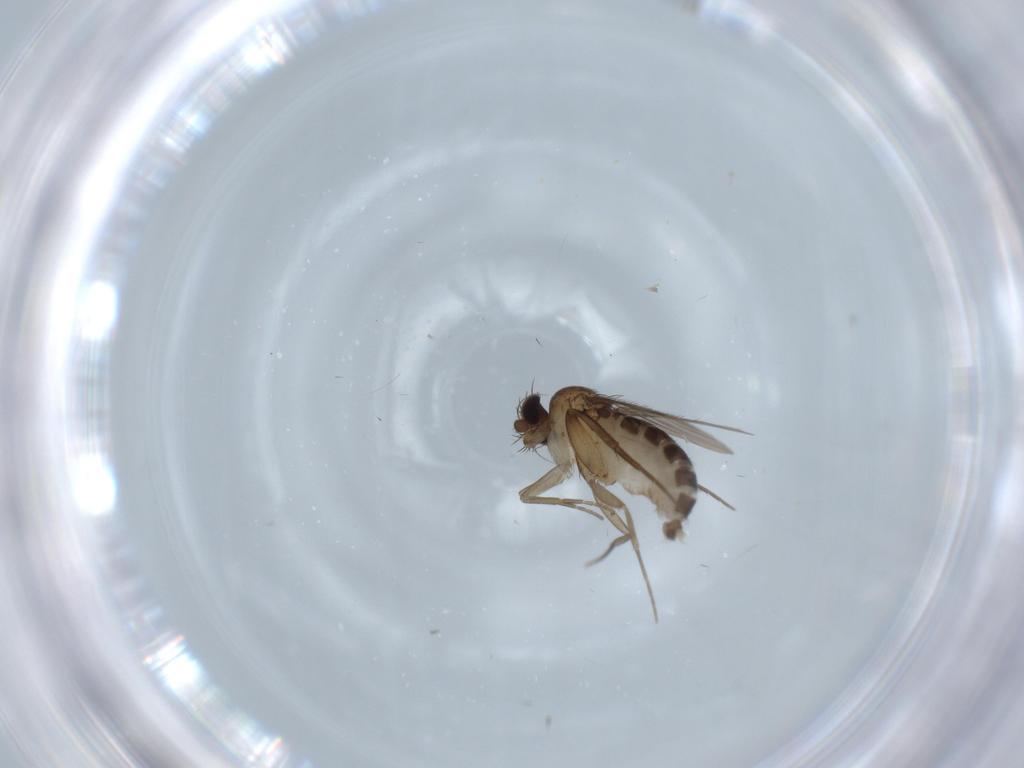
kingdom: Animalia
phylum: Arthropoda
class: Insecta
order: Diptera
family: Phoridae
